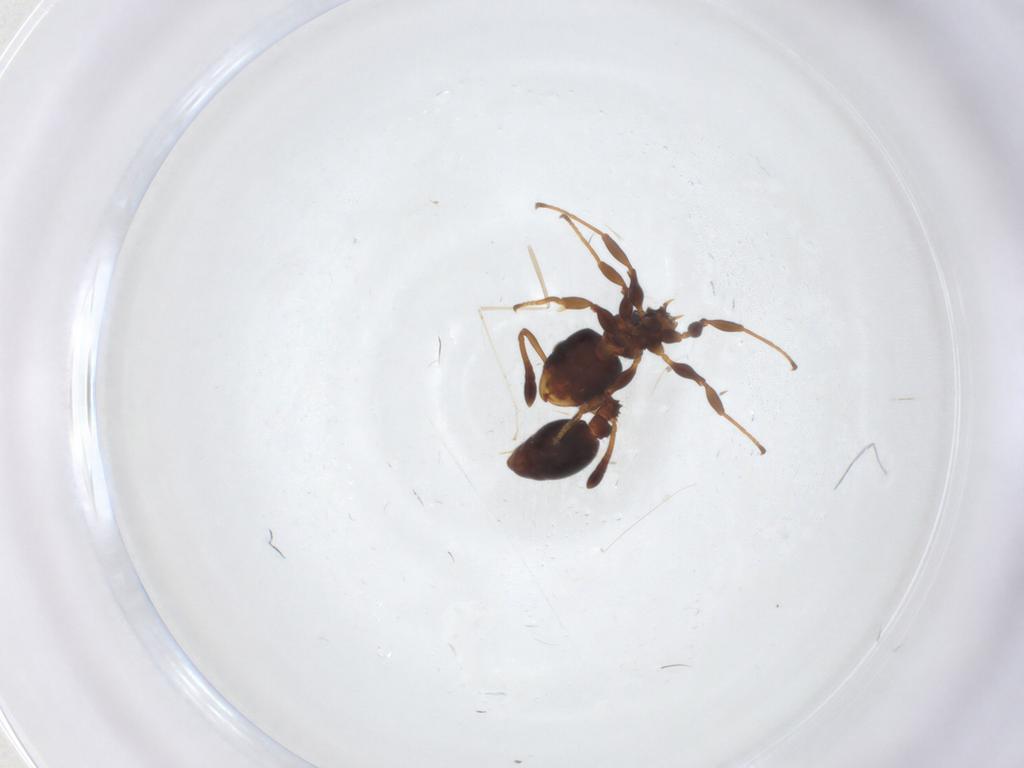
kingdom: Animalia
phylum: Arthropoda
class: Insecta
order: Hymenoptera
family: Formicidae
